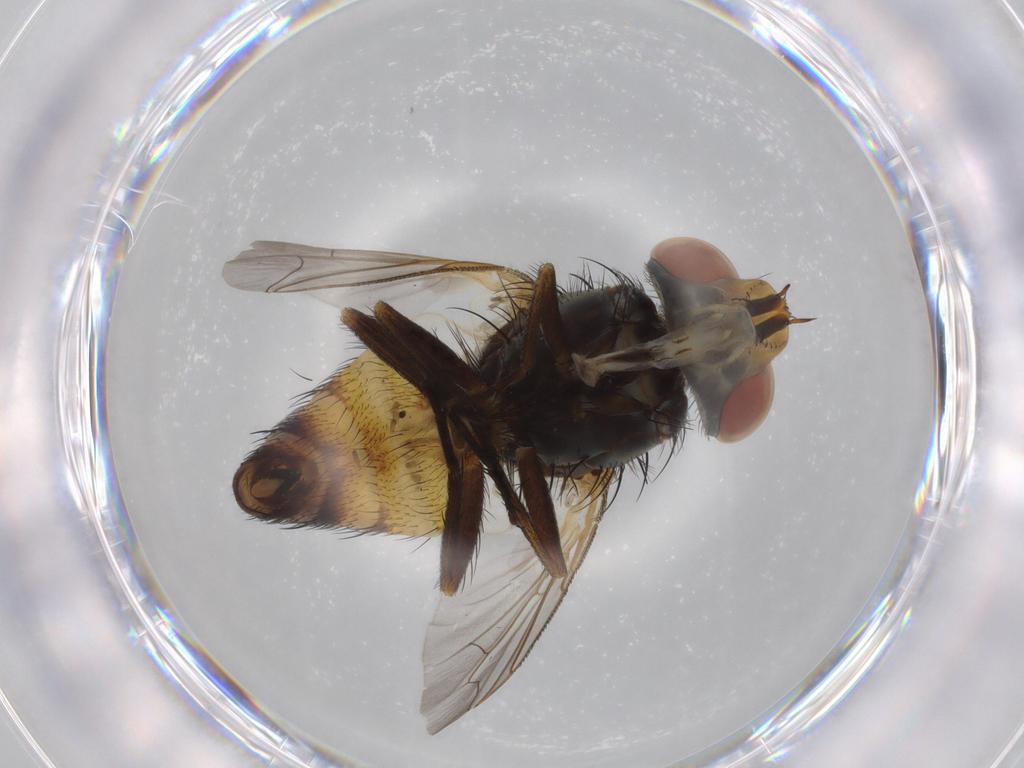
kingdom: Animalia
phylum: Arthropoda
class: Insecta
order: Diptera
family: Sarcophagidae
